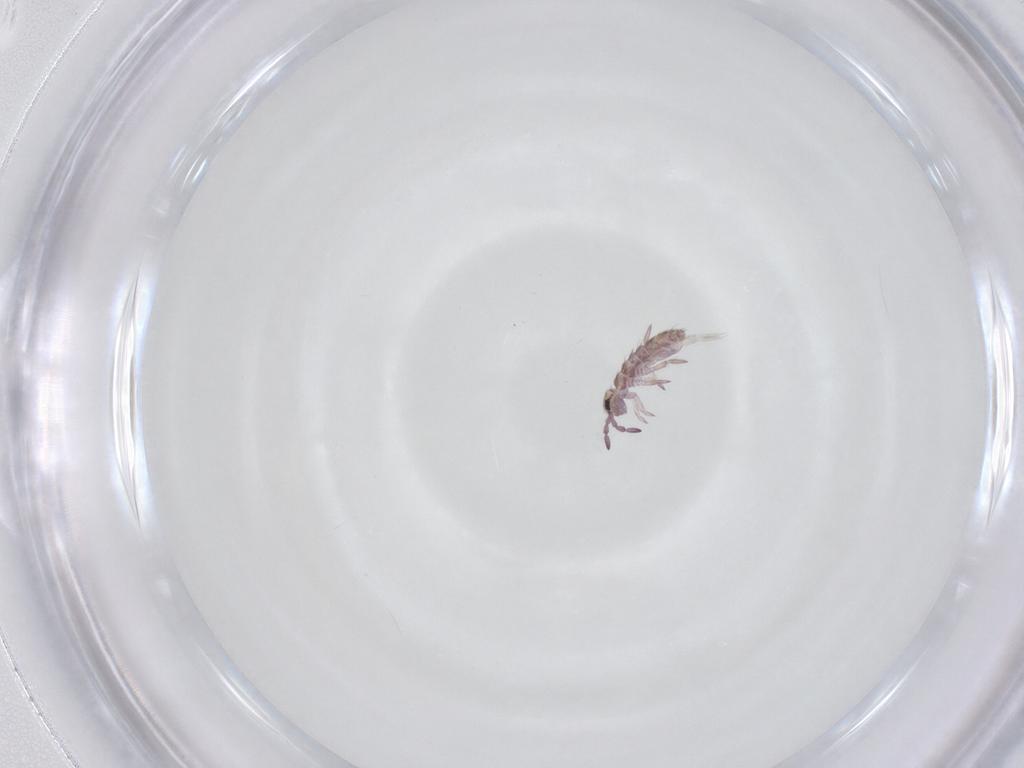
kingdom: Animalia
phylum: Arthropoda
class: Collembola
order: Entomobryomorpha
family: Isotomidae
